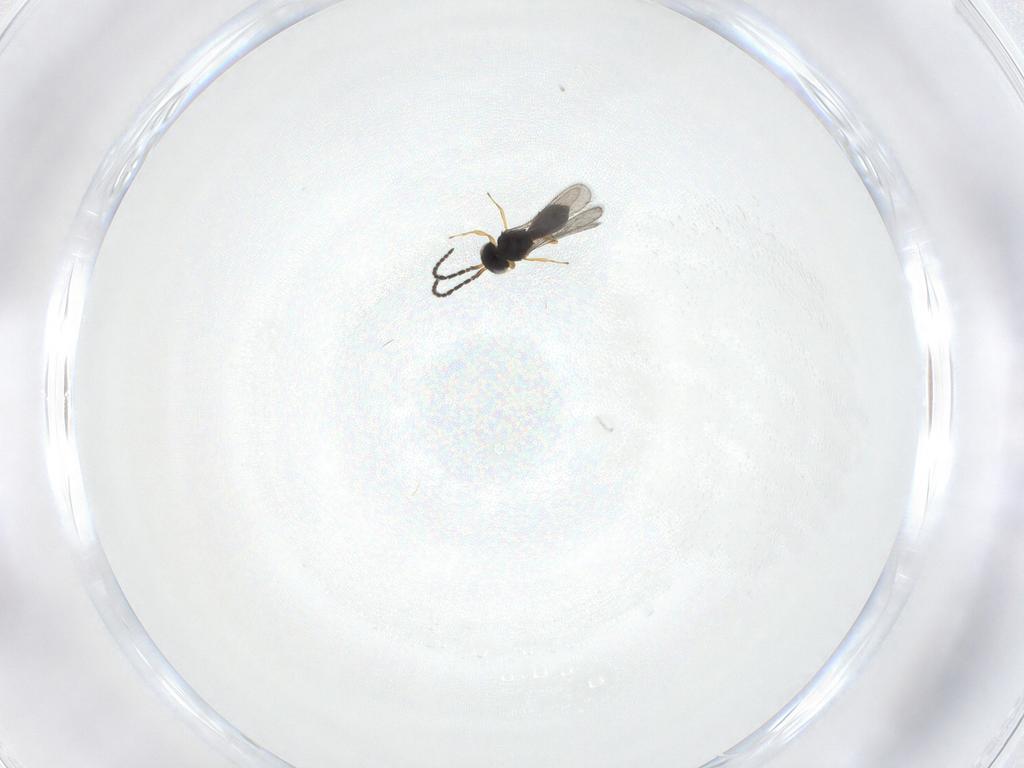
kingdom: Animalia
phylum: Arthropoda
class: Insecta
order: Hymenoptera
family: Scelionidae
